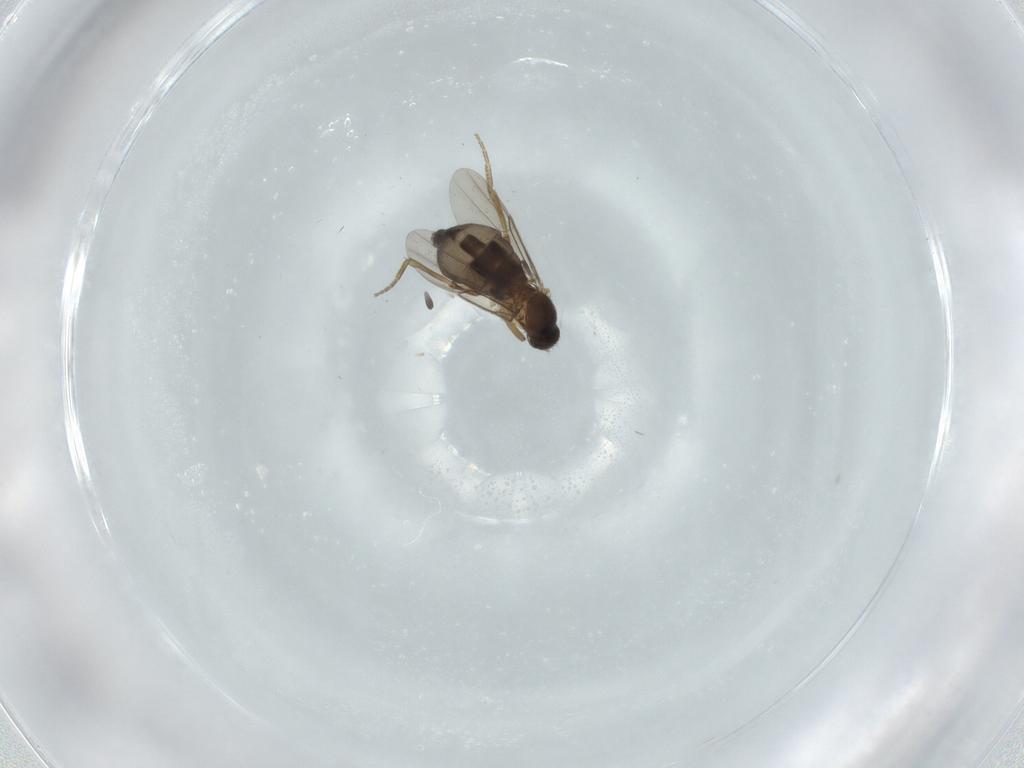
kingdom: Animalia
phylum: Arthropoda
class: Insecta
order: Diptera
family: Phoridae
